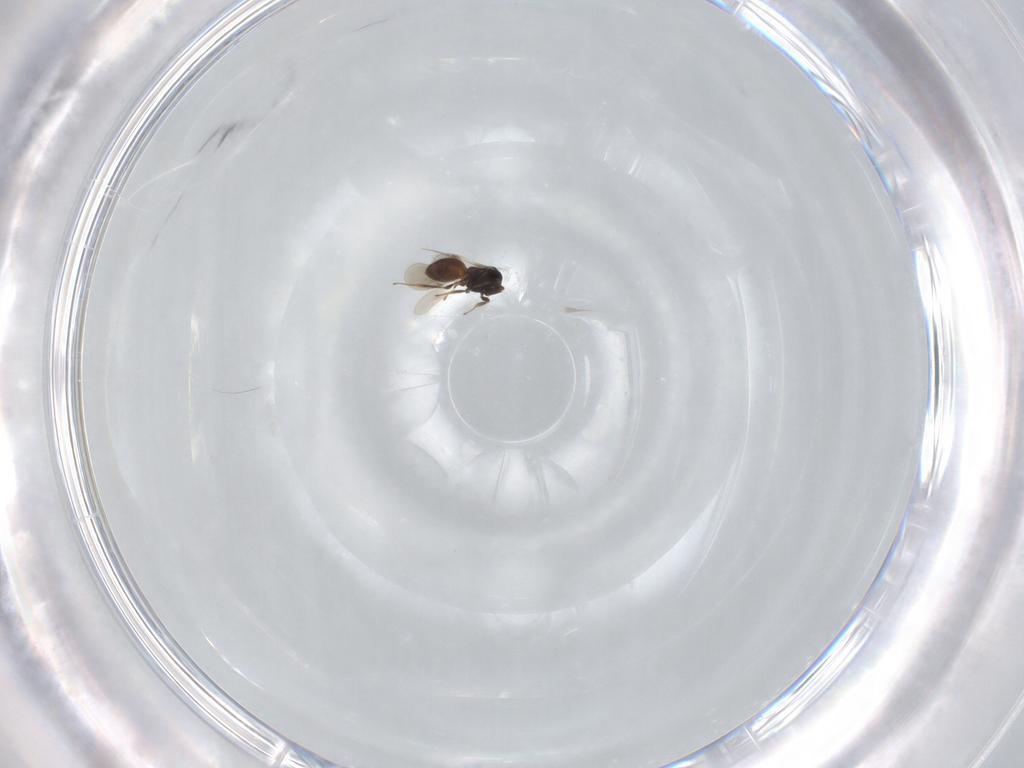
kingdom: Animalia
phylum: Arthropoda
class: Insecta
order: Hymenoptera
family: Scelionidae
